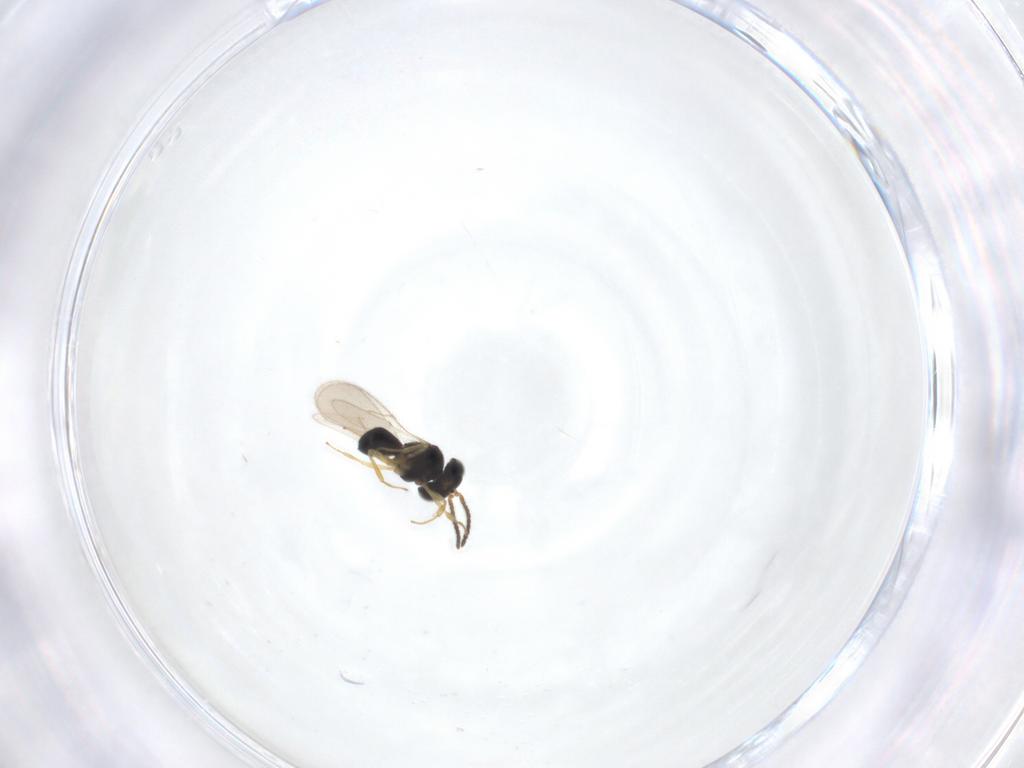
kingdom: Animalia
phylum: Arthropoda
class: Insecta
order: Hymenoptera
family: Scelionidae
